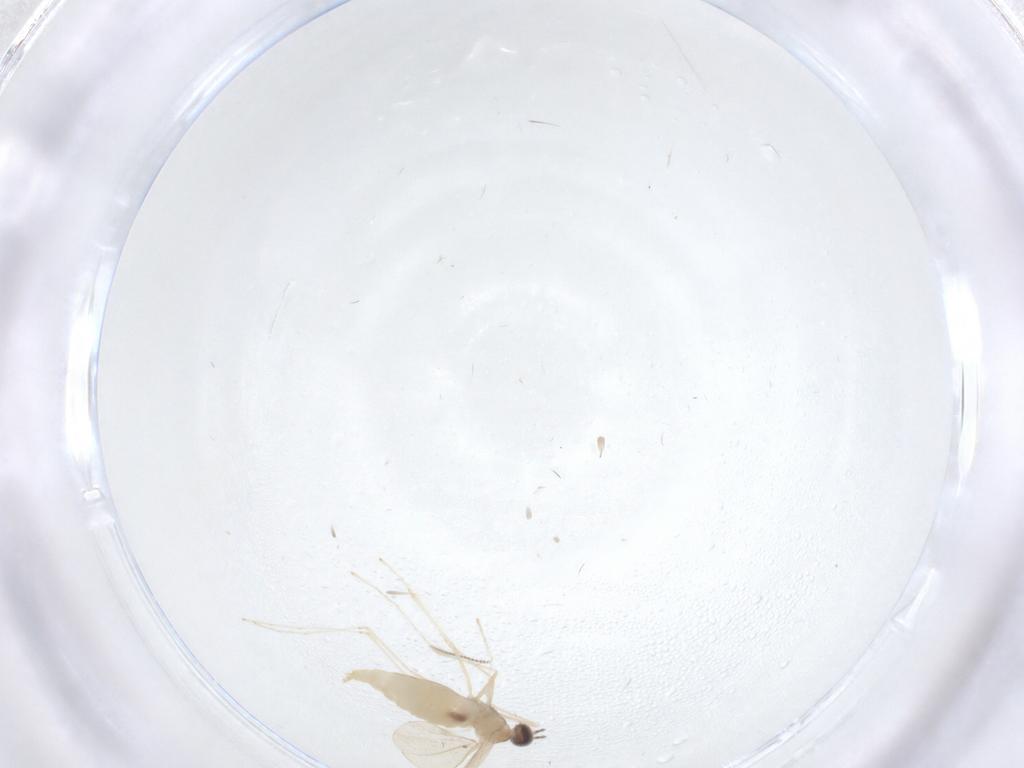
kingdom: Animalia
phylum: Arthropoda
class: Insecta
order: Diptera
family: Cecidomyiidae
